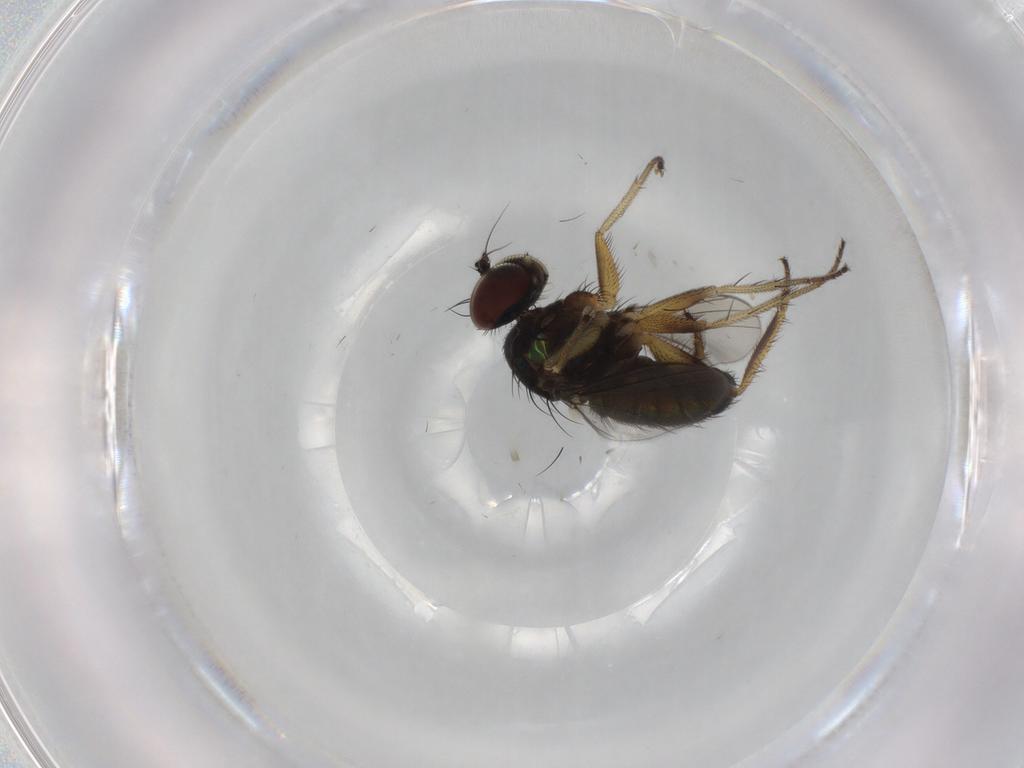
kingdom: Animalia
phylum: Arthropoda
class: Insecta
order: Diptera
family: Dolichopodidae
